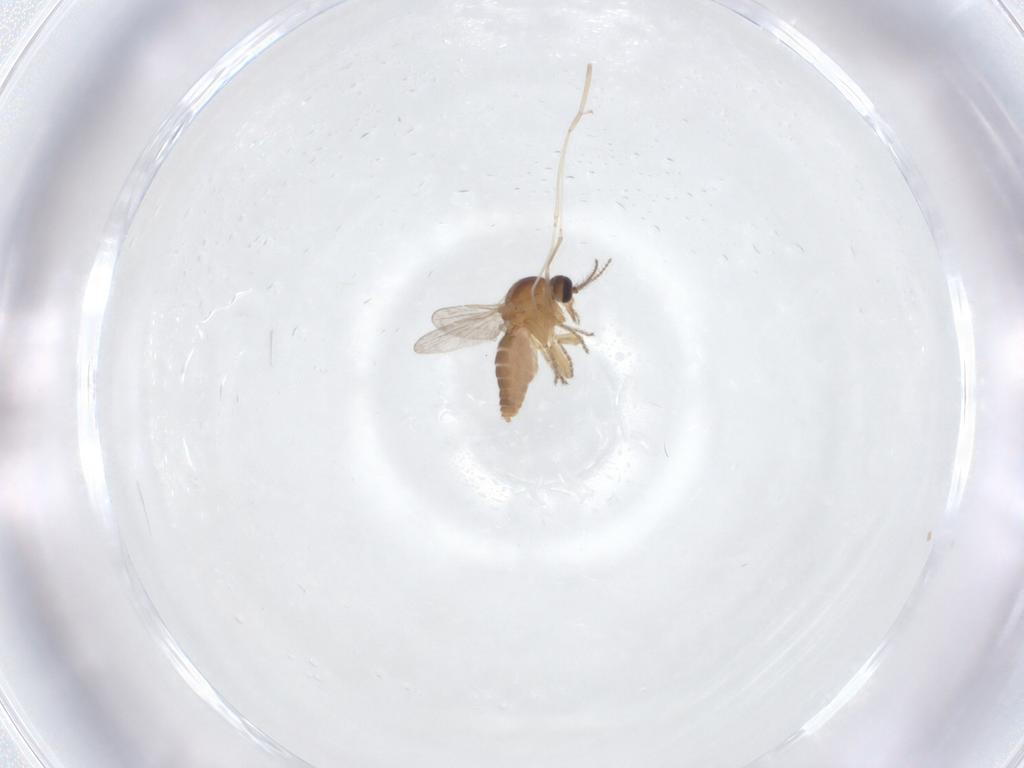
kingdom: Animalia
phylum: Arthropoda
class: Insecta
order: Diptera
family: Ceratopogonidae
